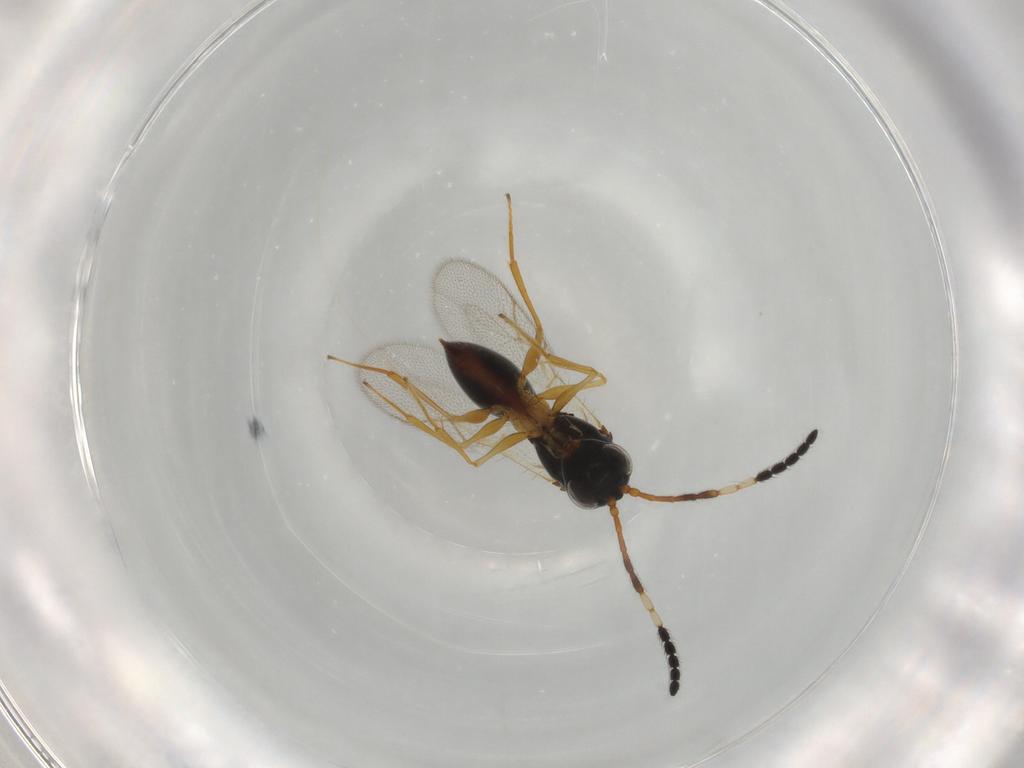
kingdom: Animalia
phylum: Arthropoda
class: Insecta
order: Hymenoptera
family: Figitidae
